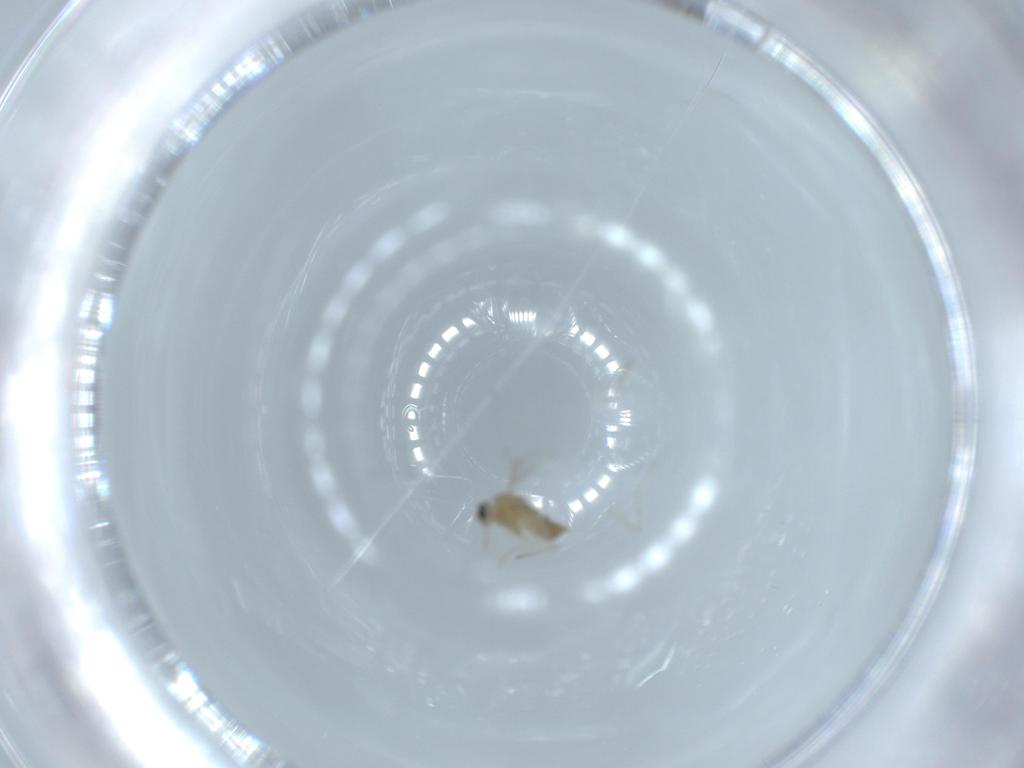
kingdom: Animalia
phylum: Arthropoda
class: Insecta
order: Diptera
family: Cecidomyiidae
